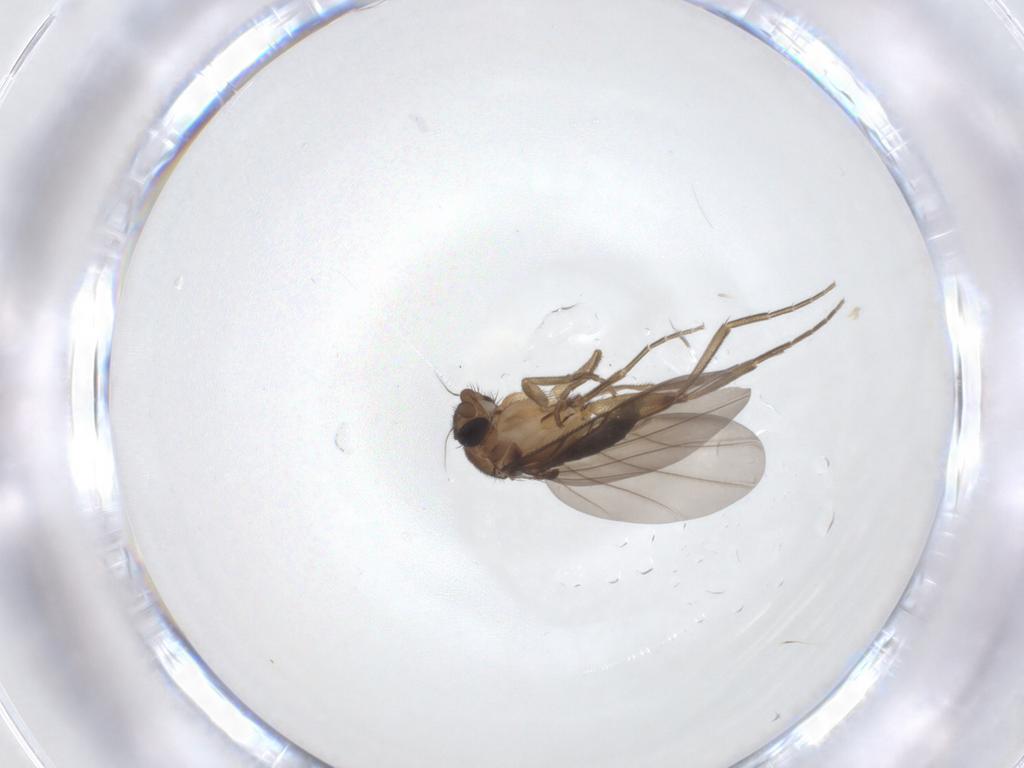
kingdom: Animalia
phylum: Arthropoda
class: Insecta
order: Diptera
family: Phoridae
